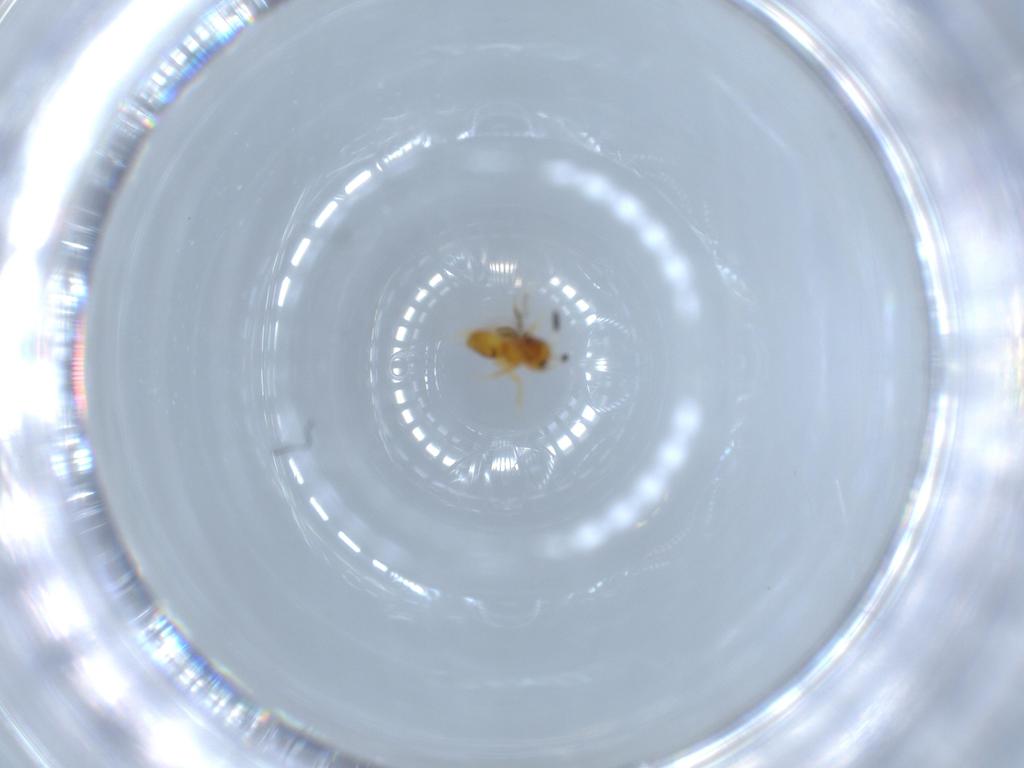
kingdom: Animalia
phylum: Arthropoda
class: Insecta
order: Hymenoptera
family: Scelionidae
